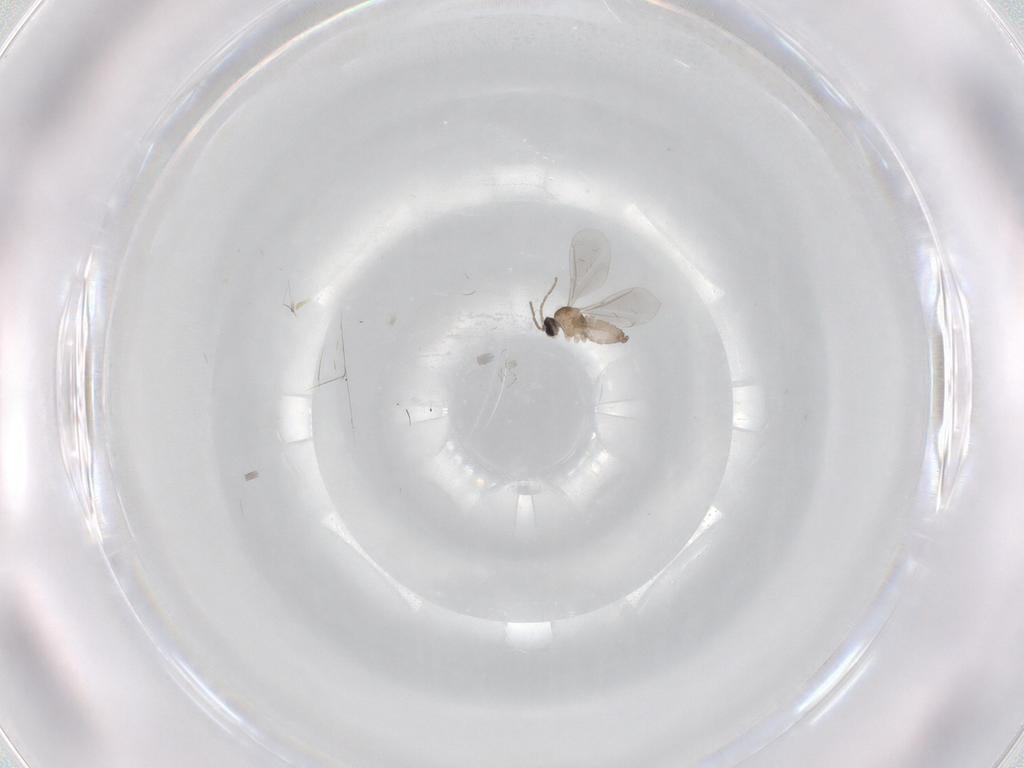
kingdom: Animalia
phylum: Arthropoda
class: Insecta
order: Diptera
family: Cecidomyiidae
